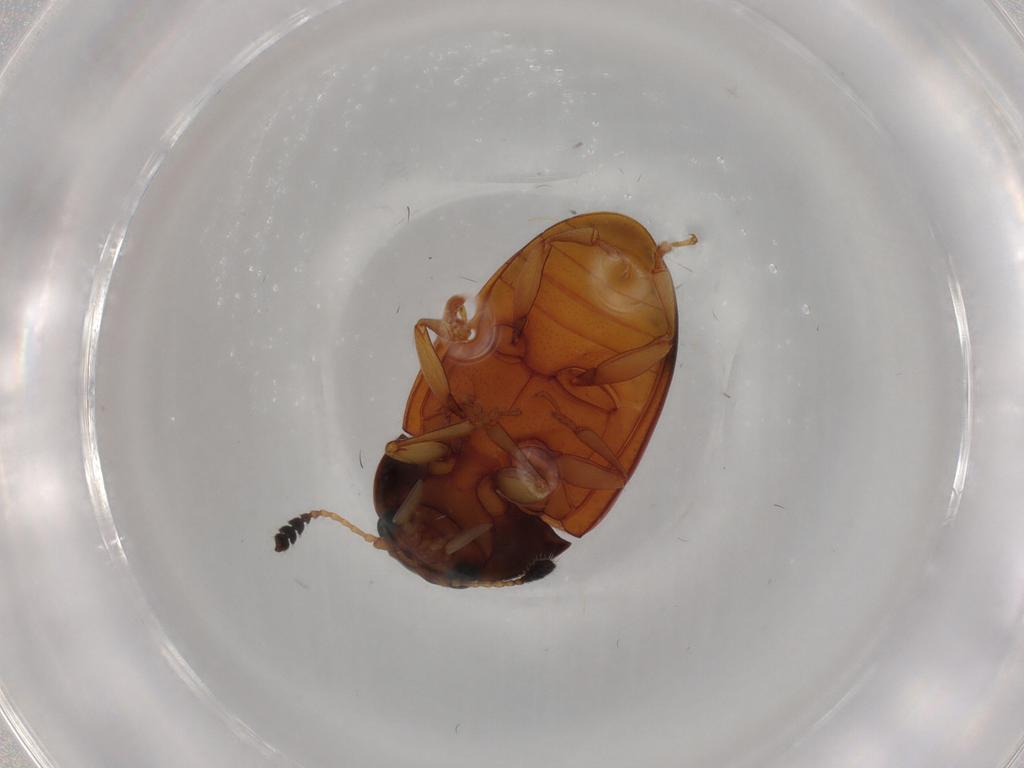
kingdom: Animalia
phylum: Arthropoda
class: Insecta
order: Coleoptera
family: Erotylidae
